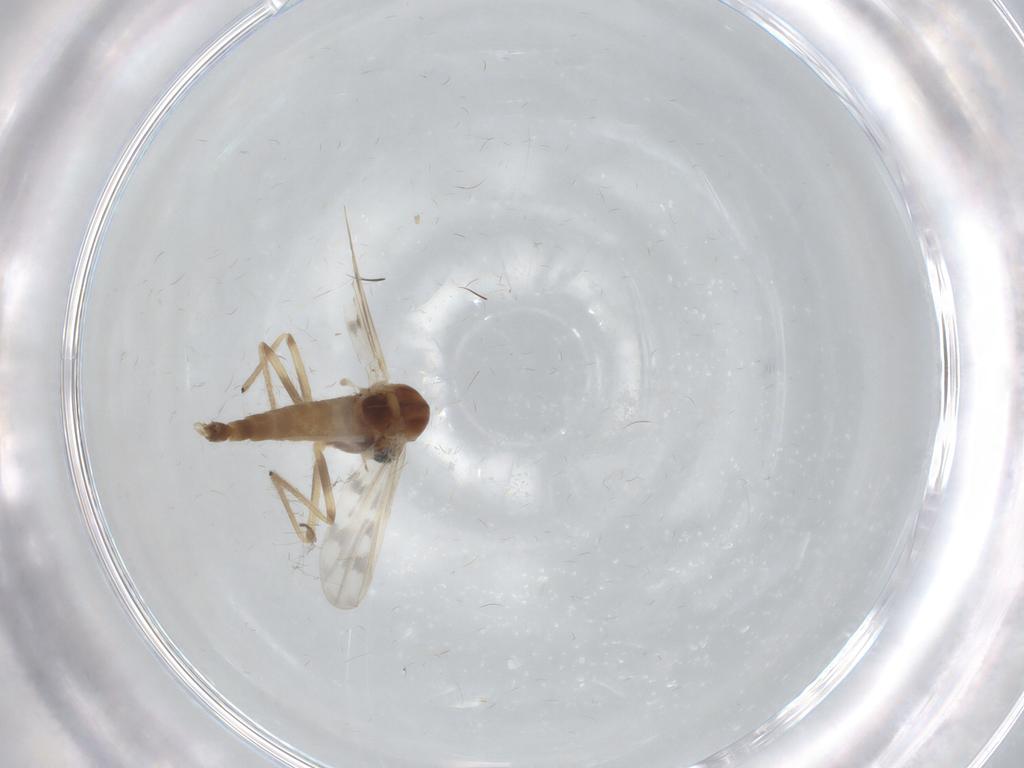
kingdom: Animalia
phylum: Arthropoda
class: Insecta
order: Diptera
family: Chironomidae
